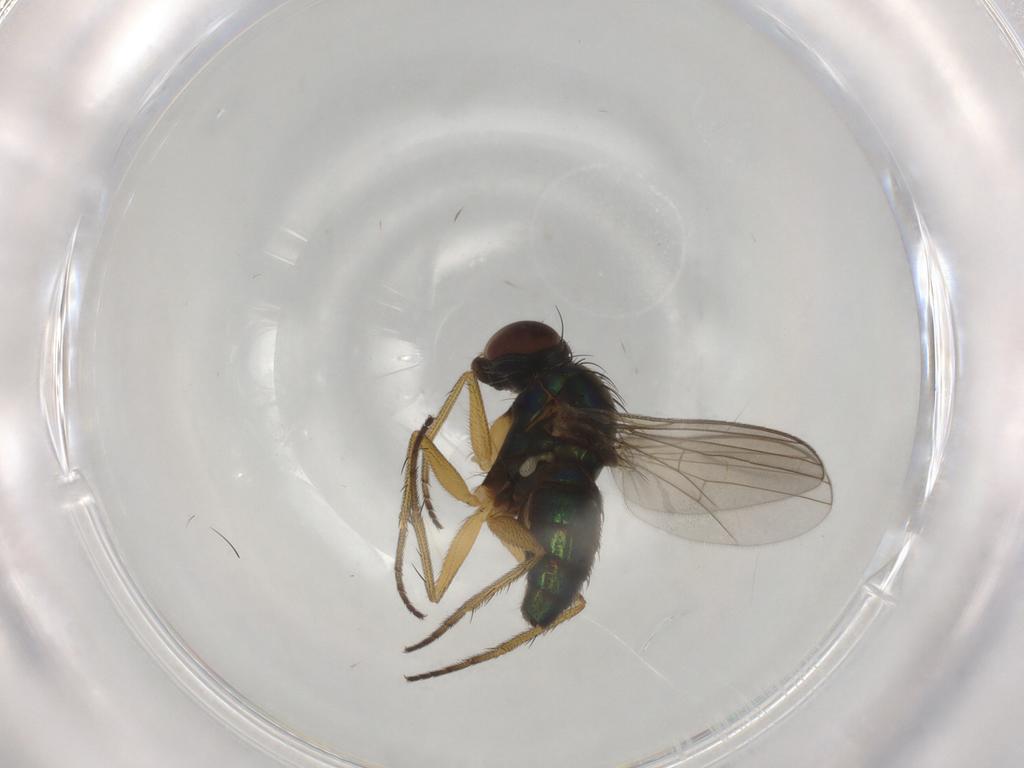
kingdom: Animalia
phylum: Arthropoda
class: Insecta
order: Diptera
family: Dolichopodidae
